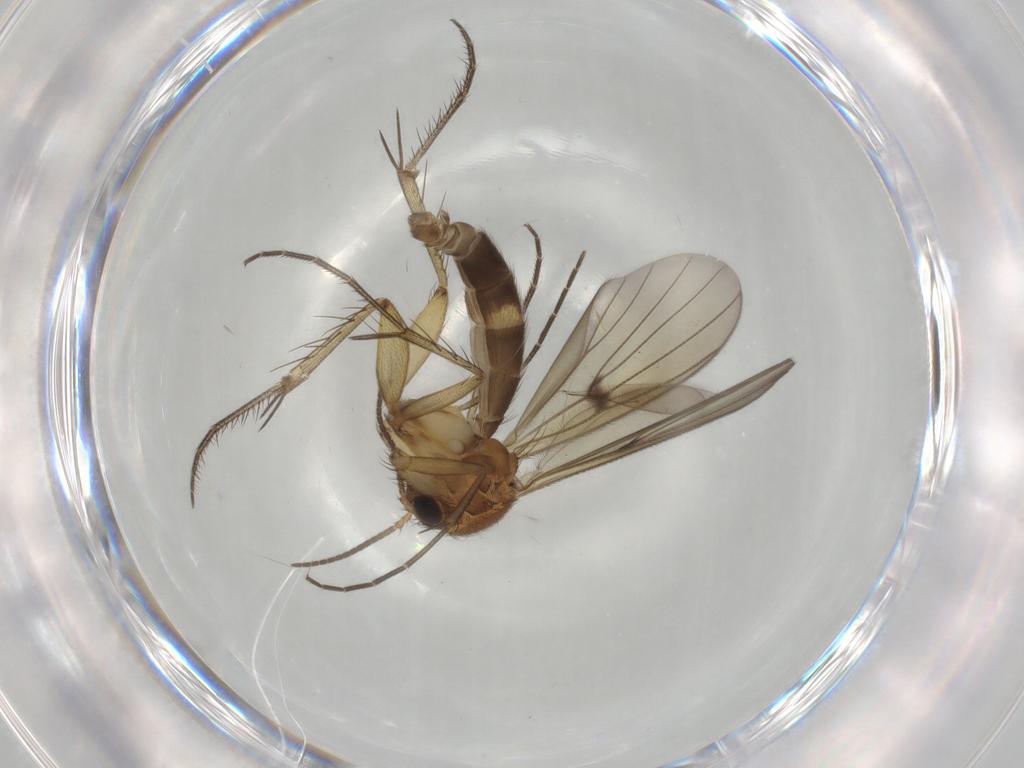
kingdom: Animalia
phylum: Arthropoda
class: Insecta
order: Diptera
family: Mycetophilidae
